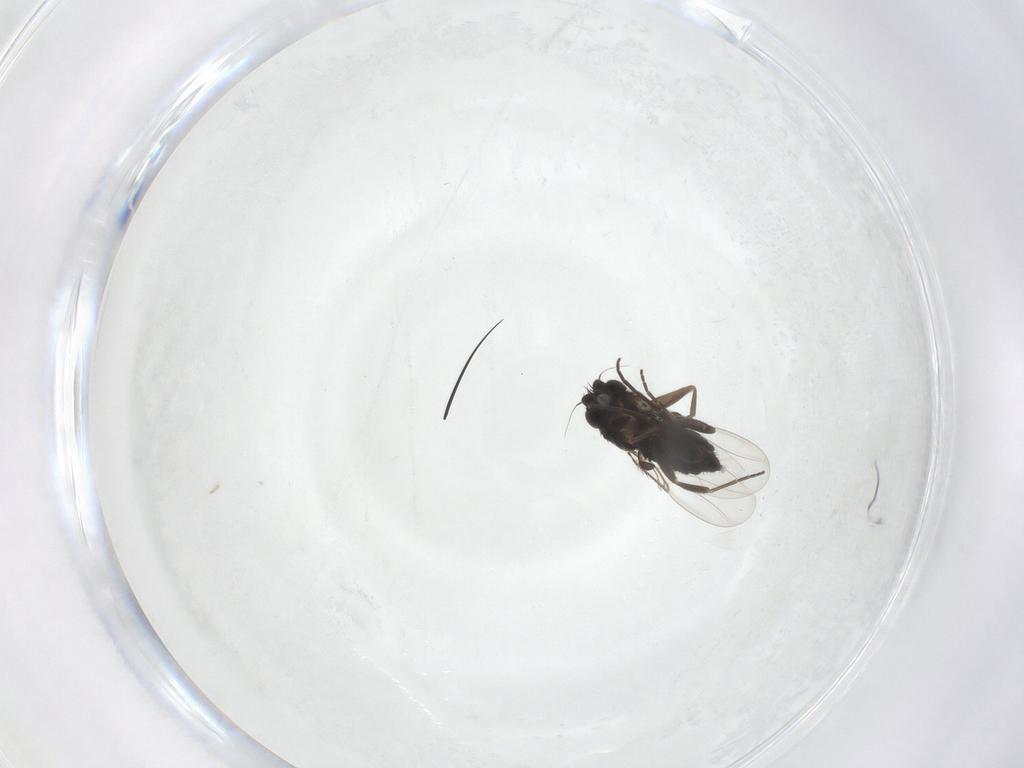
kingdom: Animalia
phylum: Arthropoda
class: Insecta
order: Diptera
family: Phoridae
